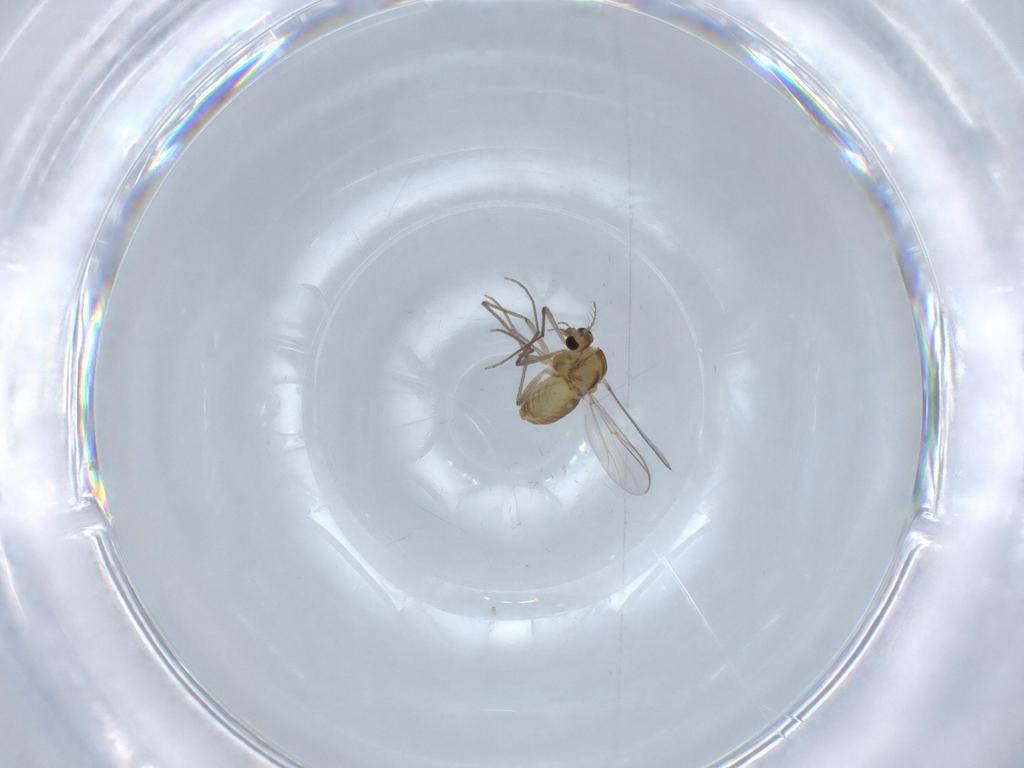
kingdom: Animalia
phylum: Arthropoda
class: Insecta
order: Diptera
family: Chironomidae
